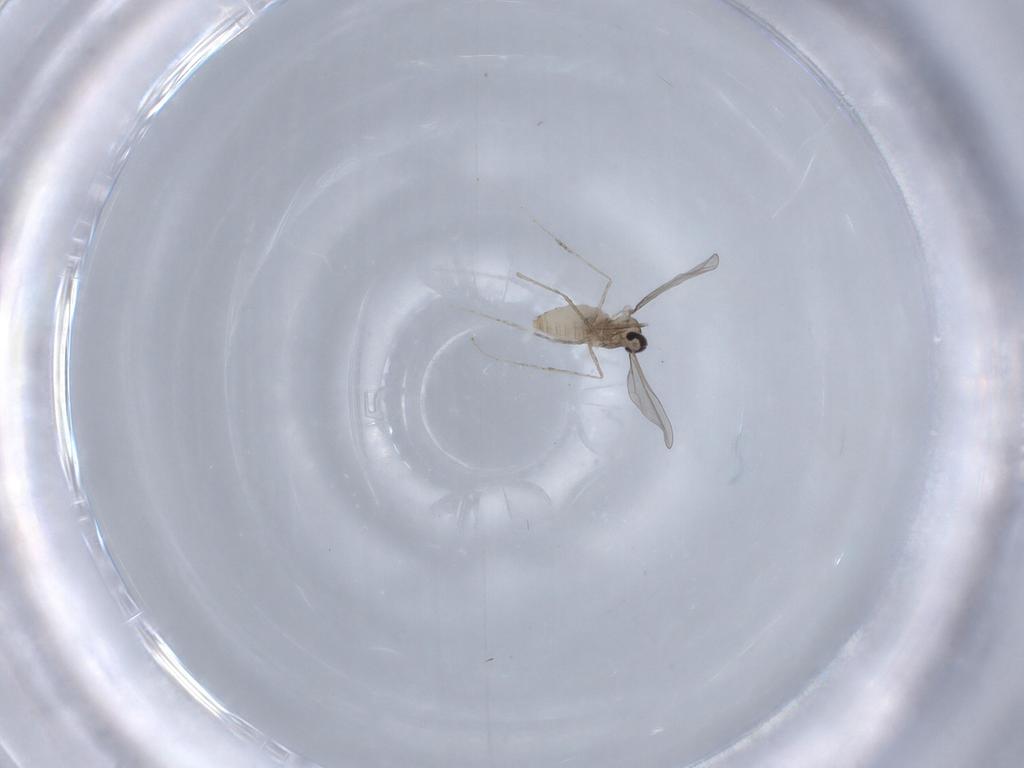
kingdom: Animalia
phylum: Arthropoda
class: Insecta
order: Diptera
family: Cecidomyiidae
